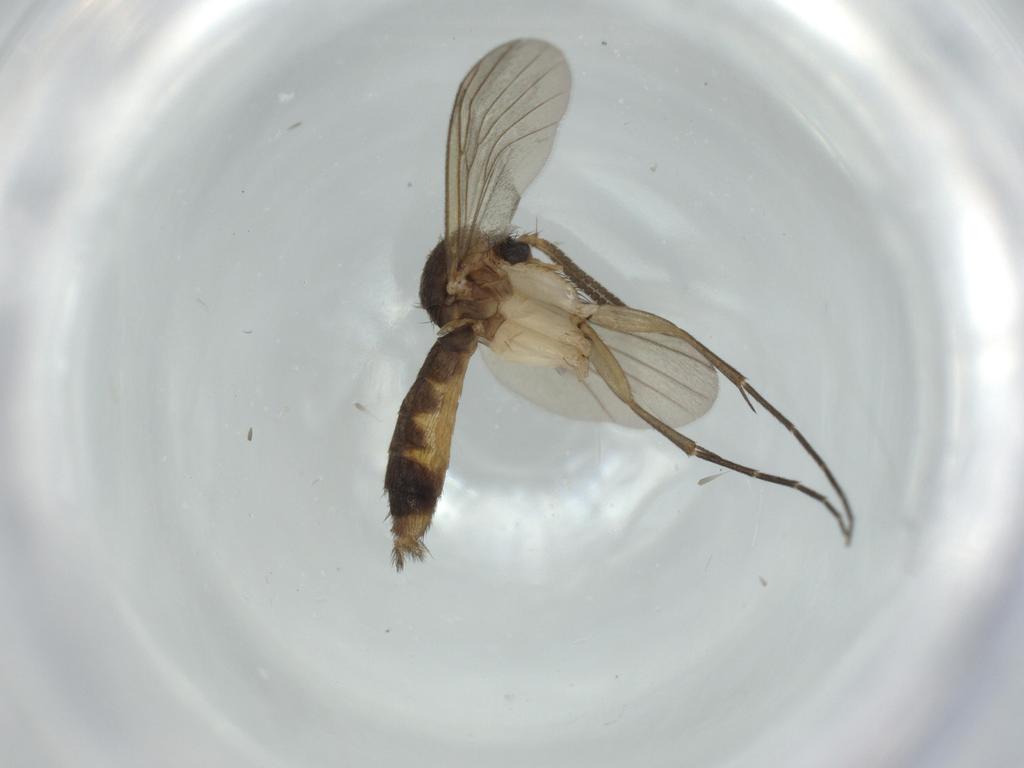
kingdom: Animalia
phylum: Arthropoda
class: Insecta
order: Diptera
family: Mycetophilidae
